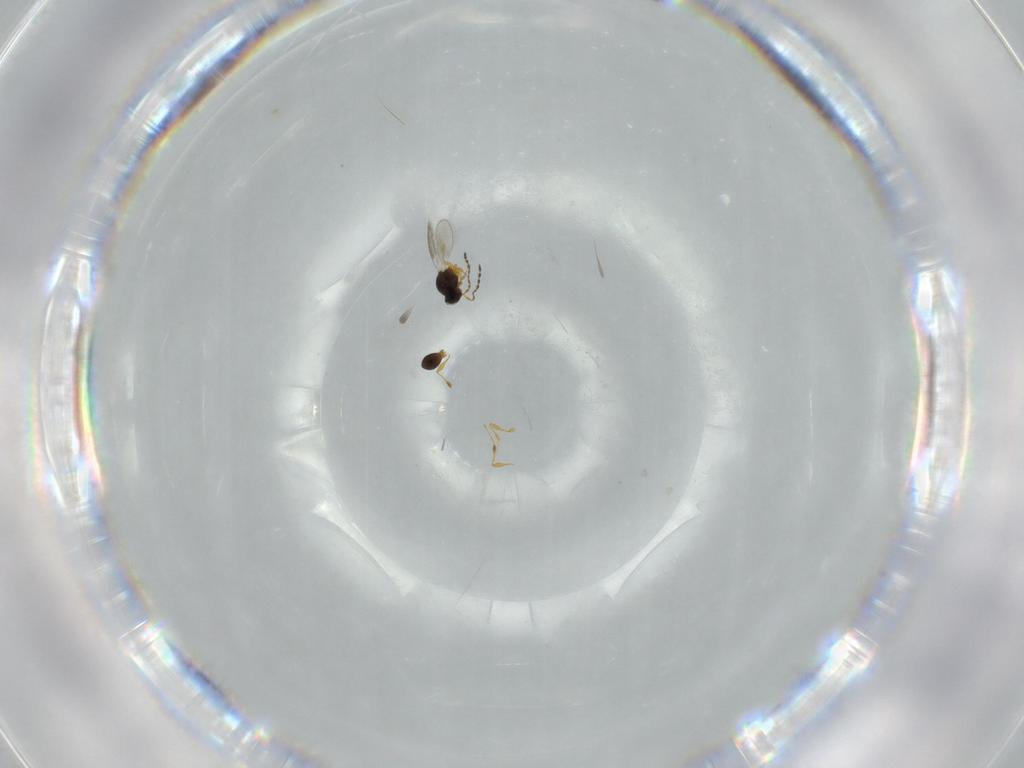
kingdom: Animalia
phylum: Arthropoda
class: Insecta
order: Hymenoptera
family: Platygastridae
